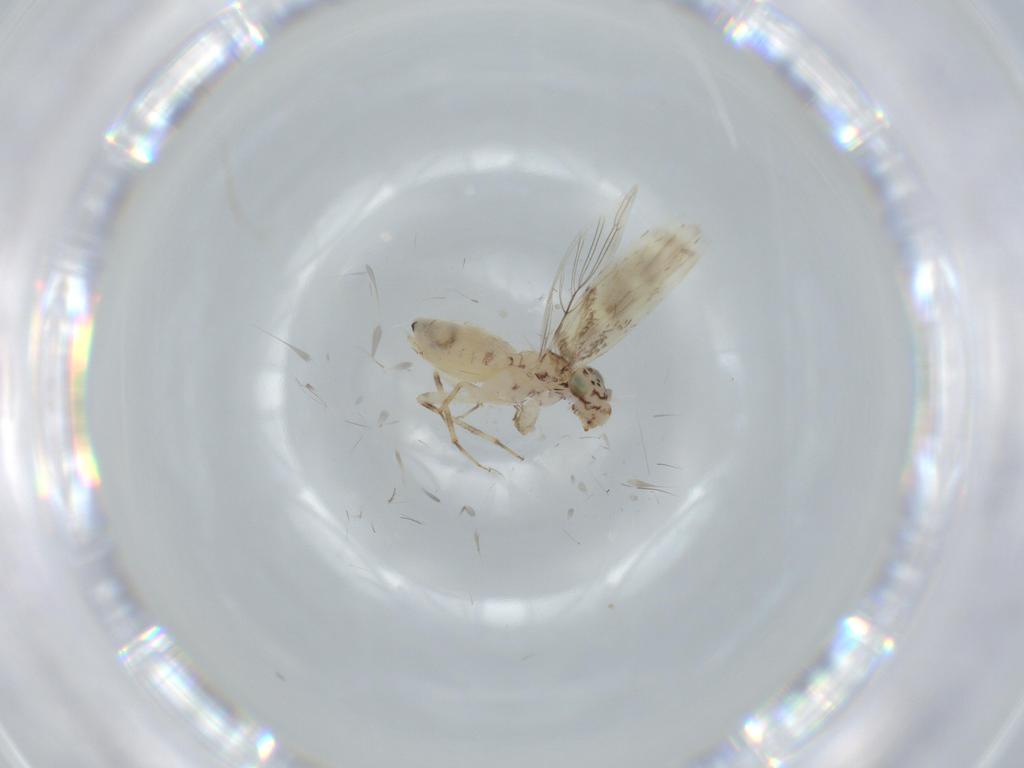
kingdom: Animalia
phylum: Arthropoda
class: Insecta
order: Psocodea
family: Lepidopsocidae
